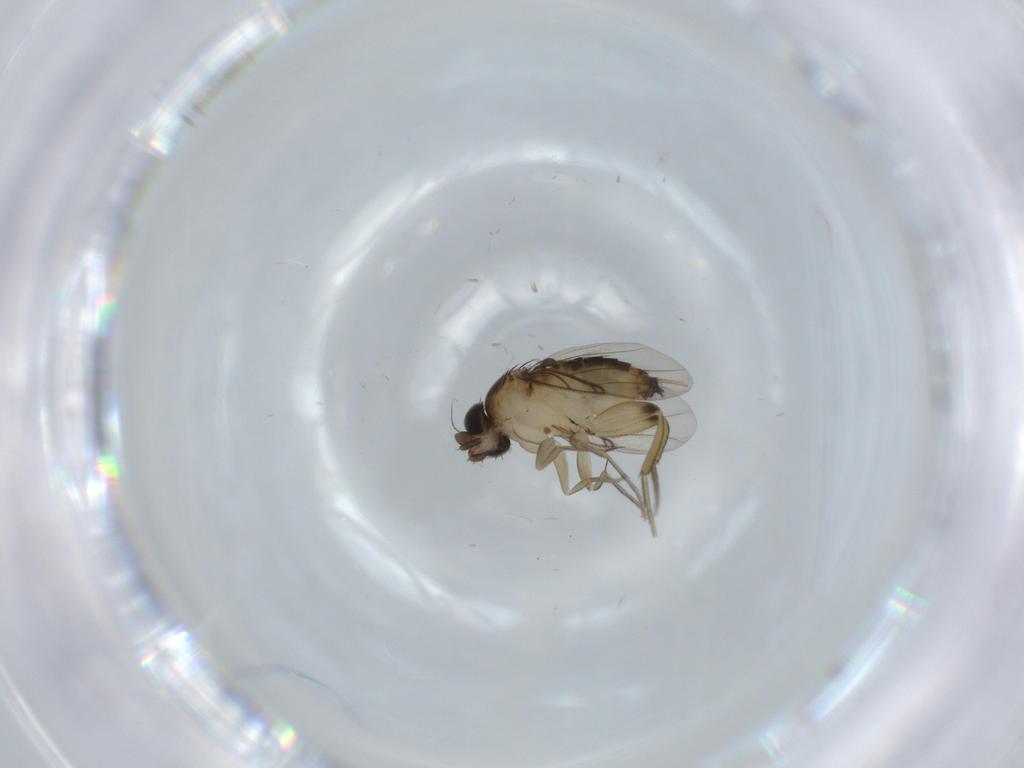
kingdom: Animalia
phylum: Arthropoda
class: Insecta
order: Diptera
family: Phoridae
